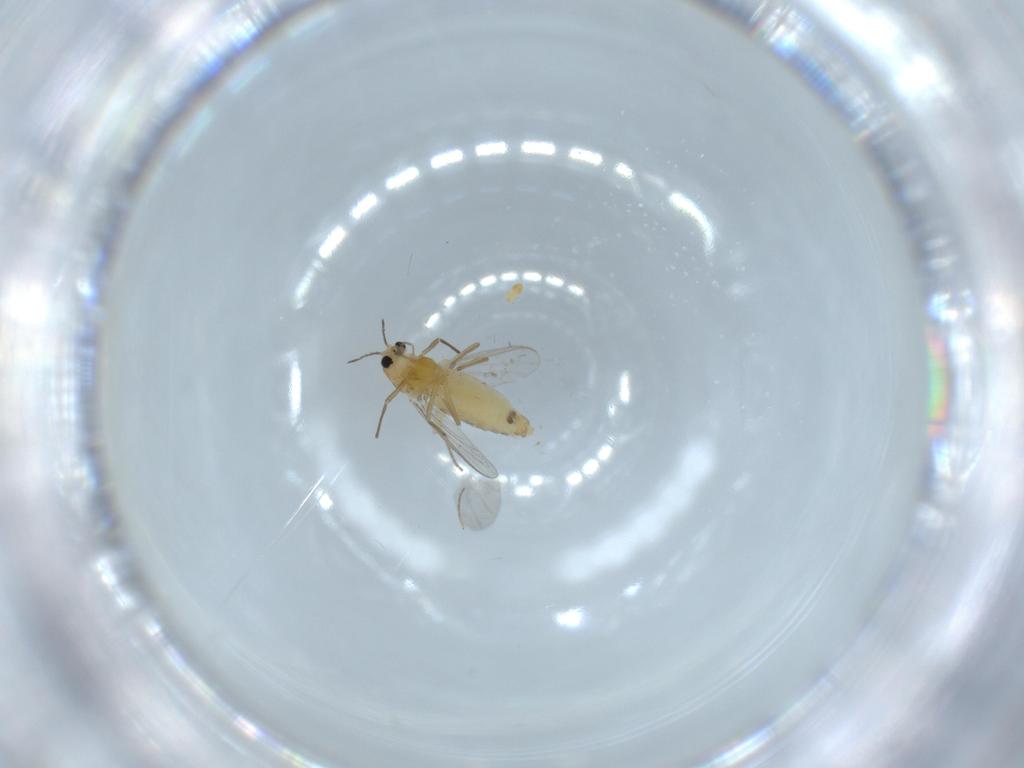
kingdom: Animalia
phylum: Arthropoda
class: Insecta
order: Diptera
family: Chironomidae
